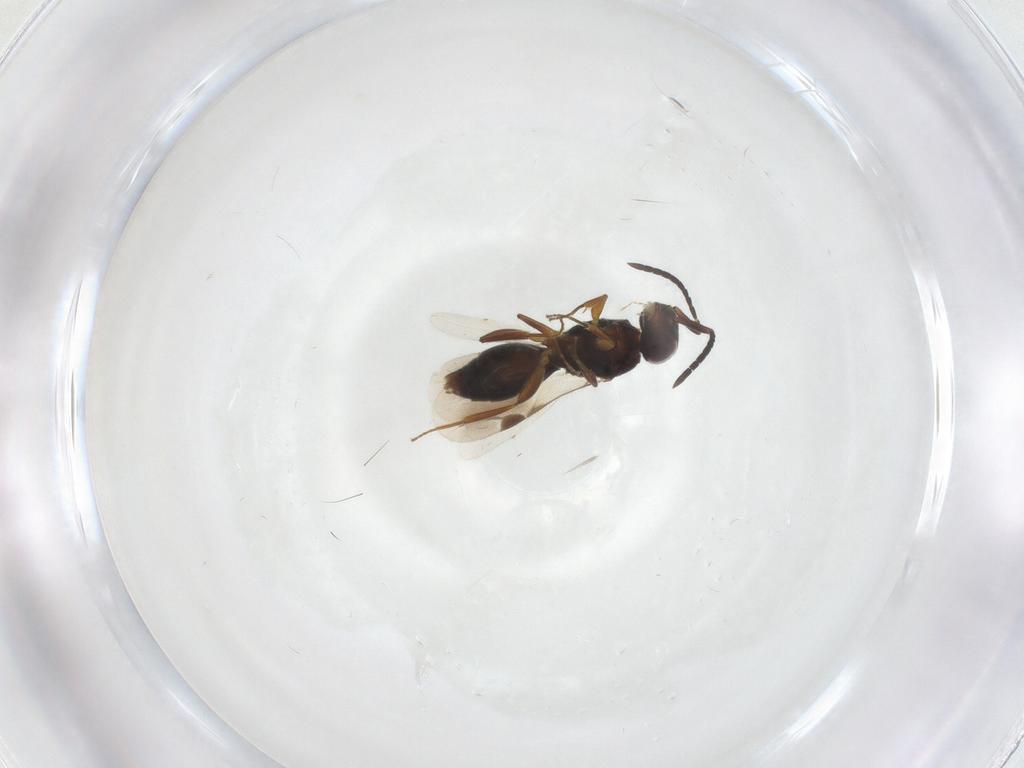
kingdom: Animalia
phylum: Arthropoda
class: Insecta
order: Hymenoptera
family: Megaspilidae
